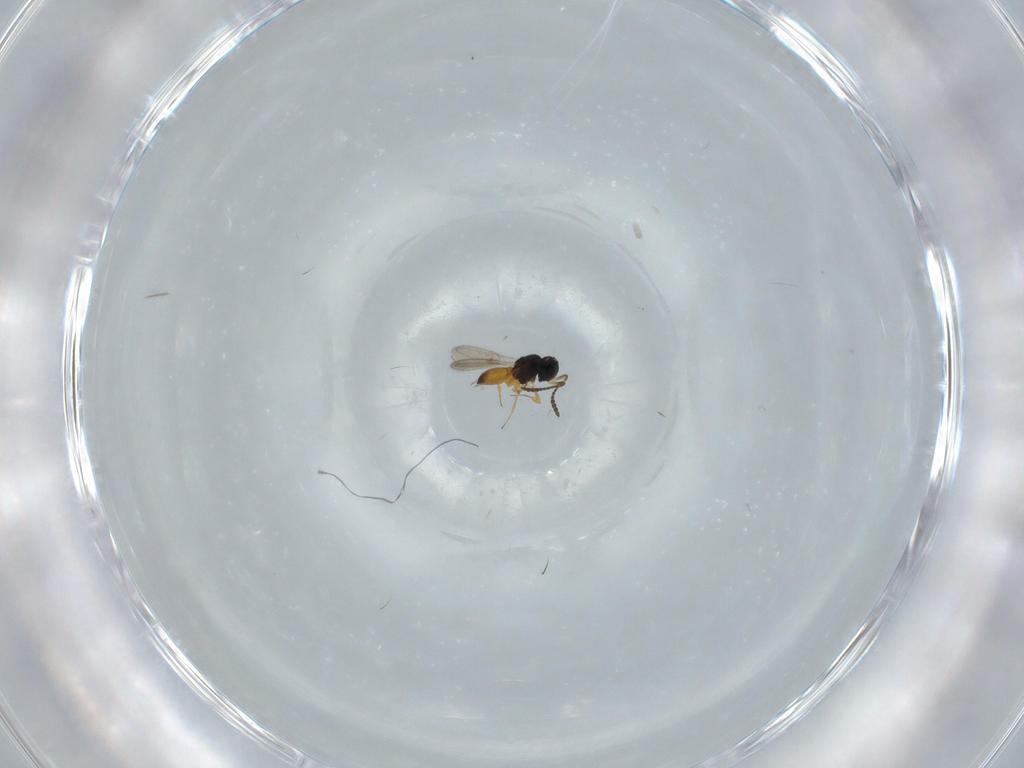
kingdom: Animalia
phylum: Arthropoda
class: Insecta
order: Hymenoptera
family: Scelionidae
